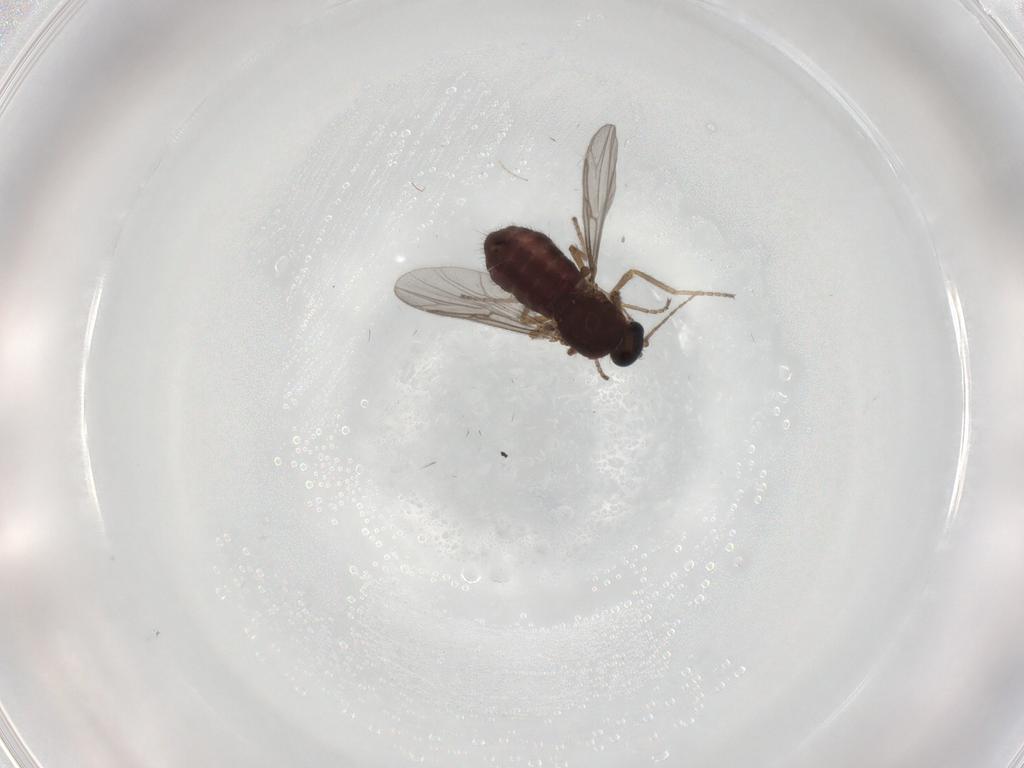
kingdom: Animalia
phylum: Arthropoda
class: Insecta
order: Diptera
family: Ceratopogonidae
